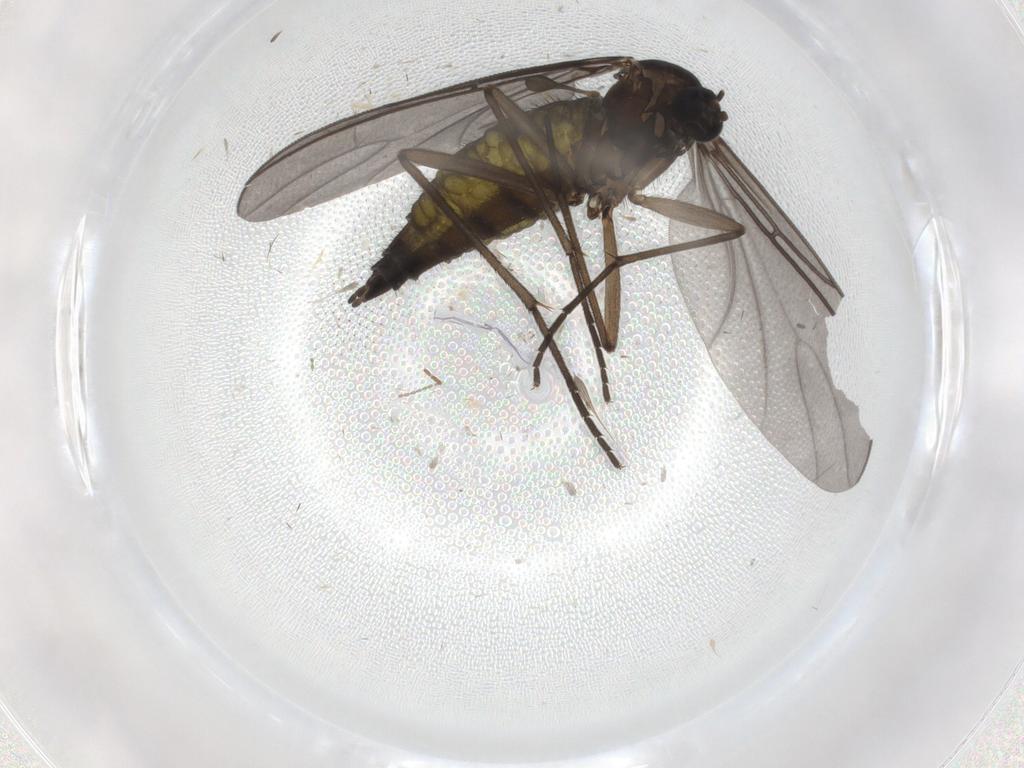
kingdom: Animalia
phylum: Arthropoda
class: Insecta
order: Diptera
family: Sciaridae
